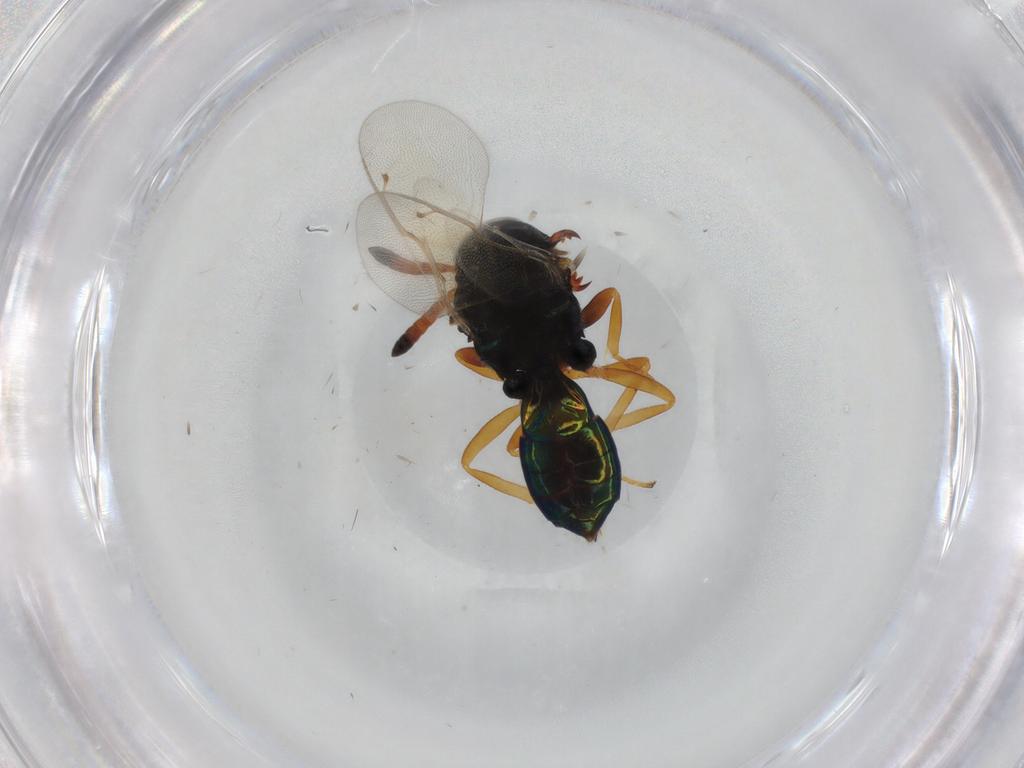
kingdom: Animalia
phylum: Arthropoda
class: Insecta
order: Hymenoptera
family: Pteromalidae
